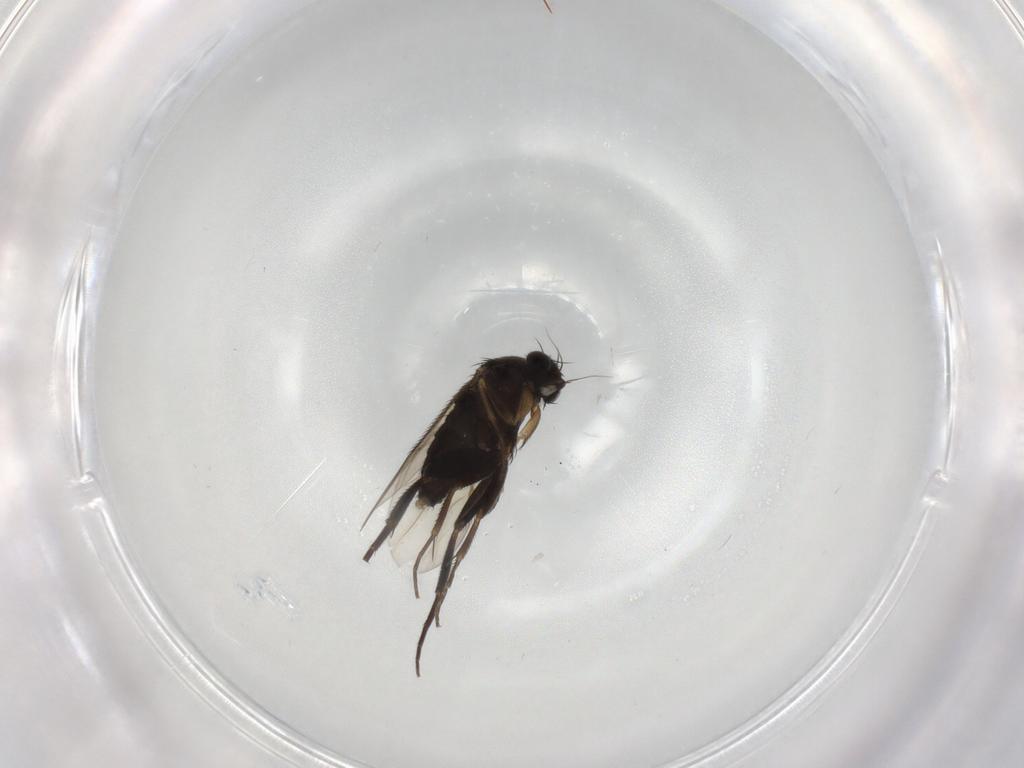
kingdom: Animalia
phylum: Arthropoda
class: Insecta
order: Diptera
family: Phoridae
